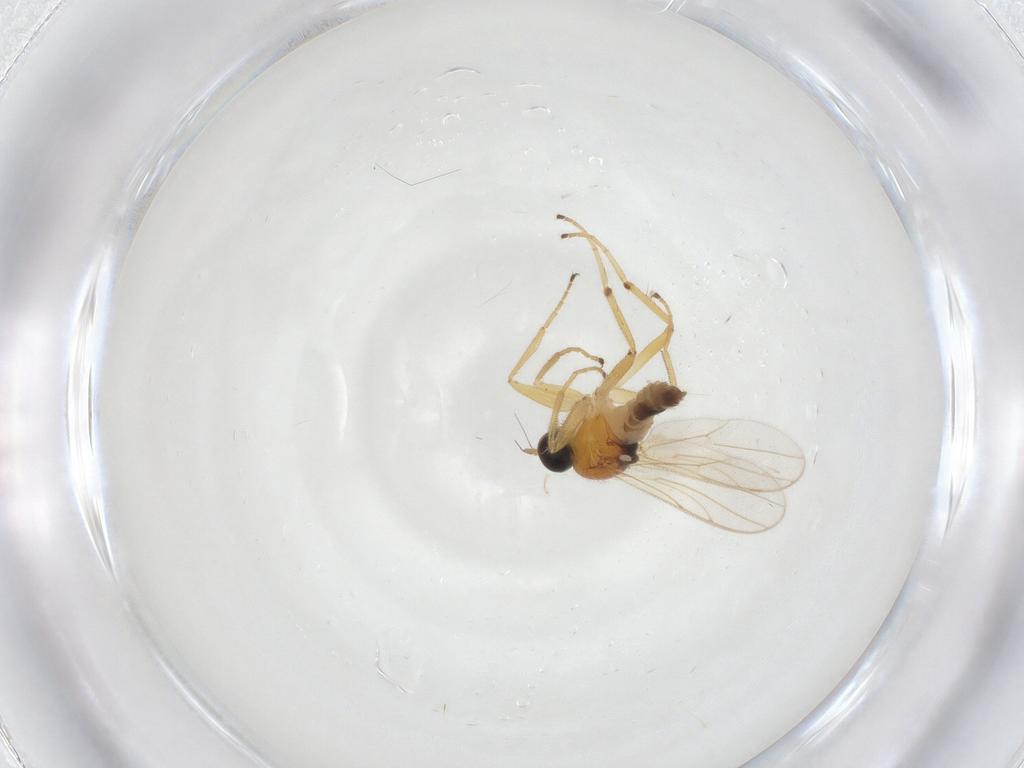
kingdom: Animalia
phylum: Arthropoda
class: Insecta
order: Diptera
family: Hybotidae
